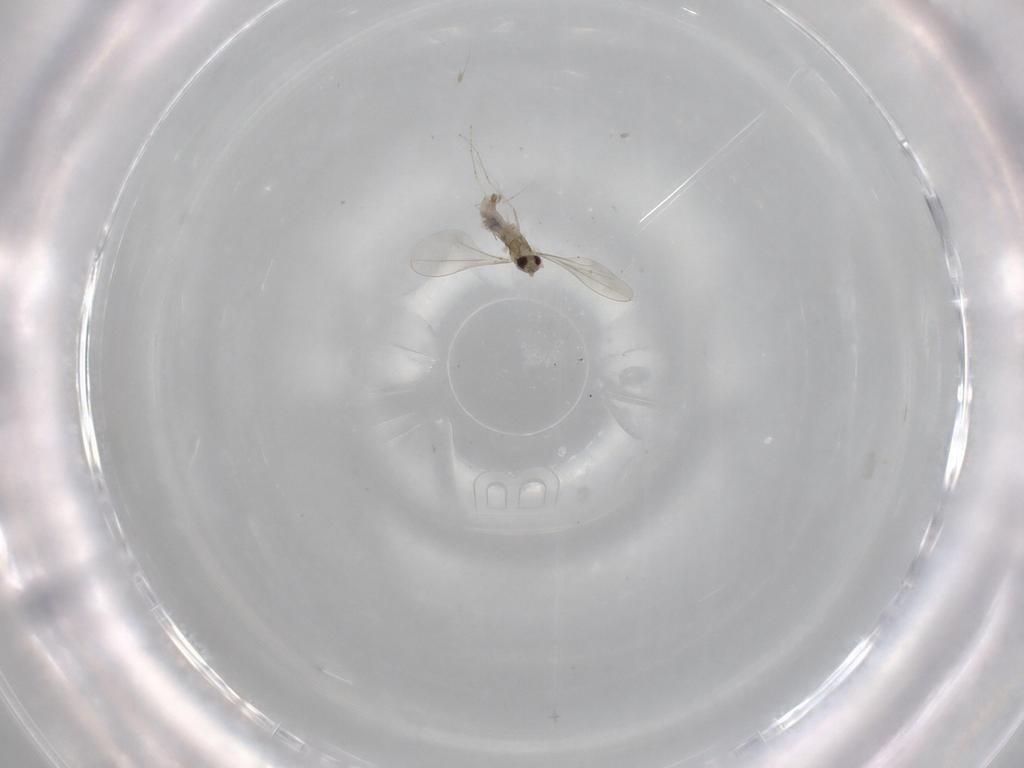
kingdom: Animalia
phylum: Arthropoda
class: Insecta
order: Diptera
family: Cecidomyiidae
